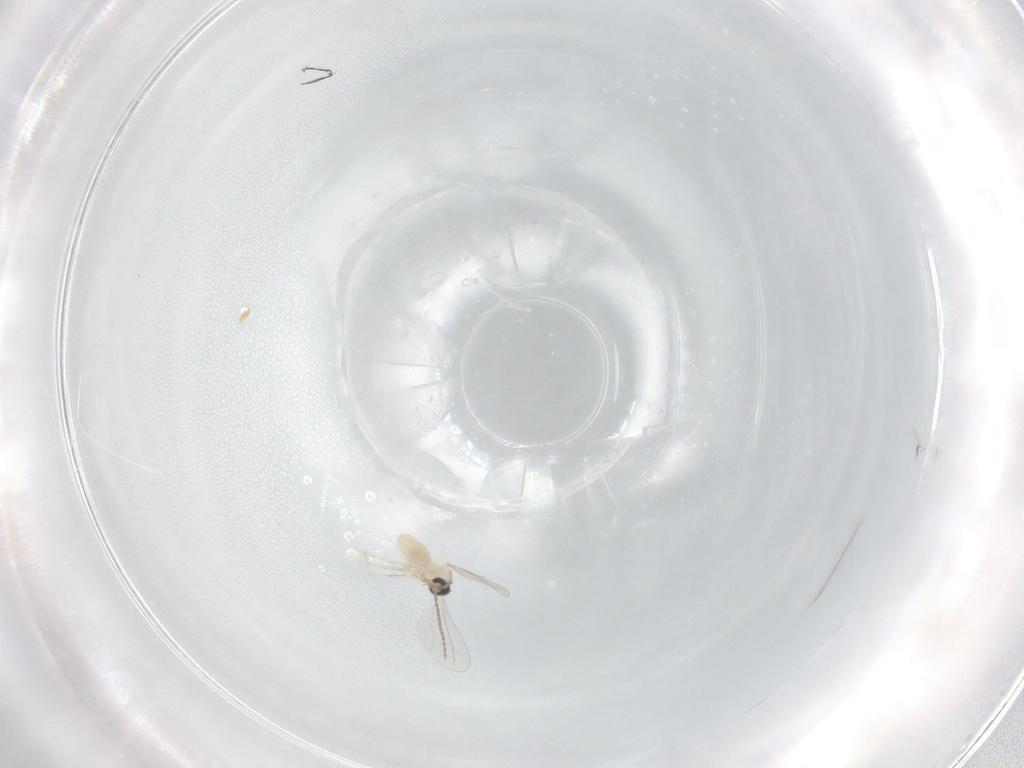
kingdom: Animalia
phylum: Arthropoda
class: Insecta
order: Diptera
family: Cecidomyiidae
